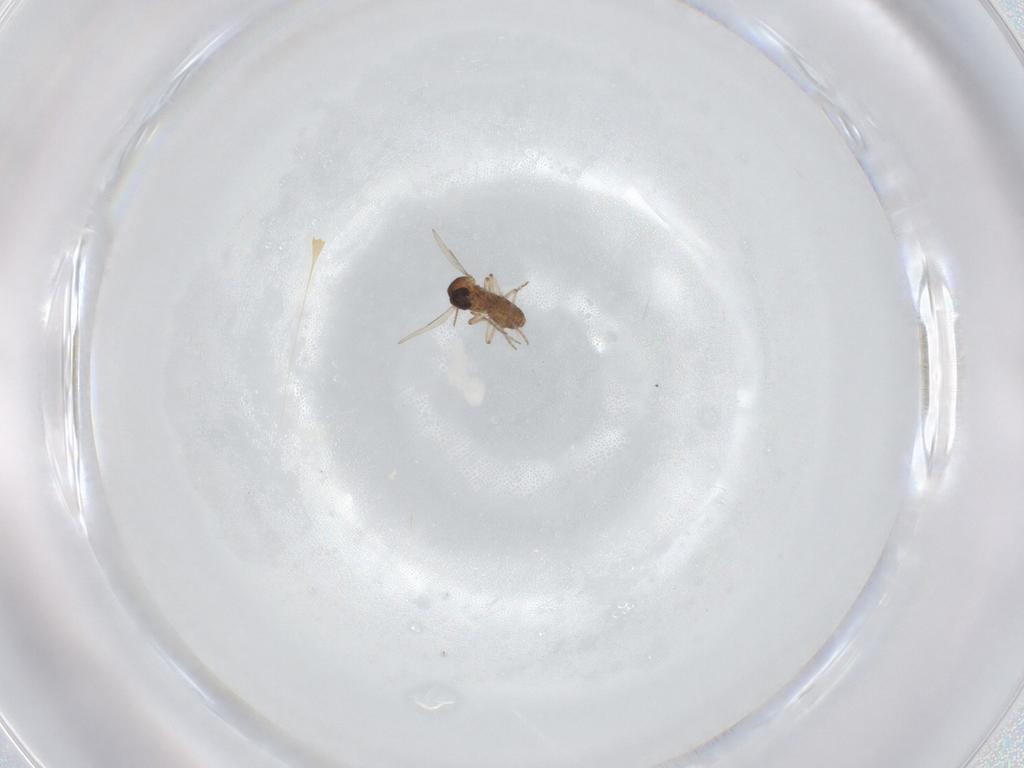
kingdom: Animalia
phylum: Arthropoda
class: Insecta
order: Diptera
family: Ceratopogonidae
